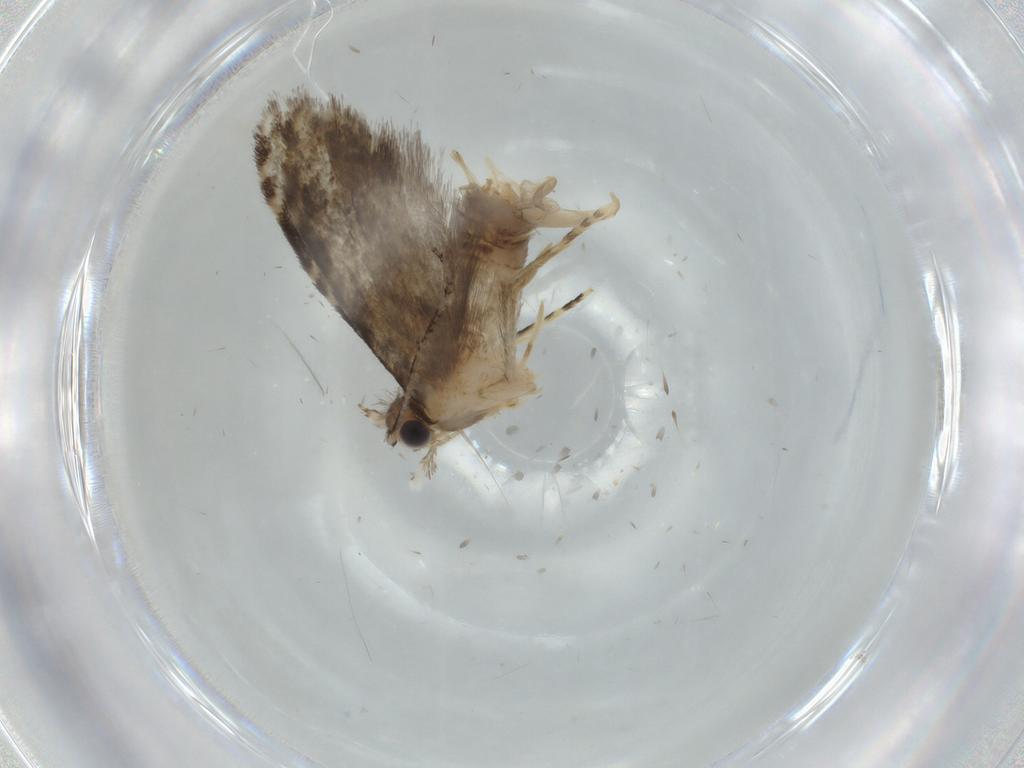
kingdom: Animalia
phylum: Arthropoda
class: Insecta
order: Lepidoptera
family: Tineidae
